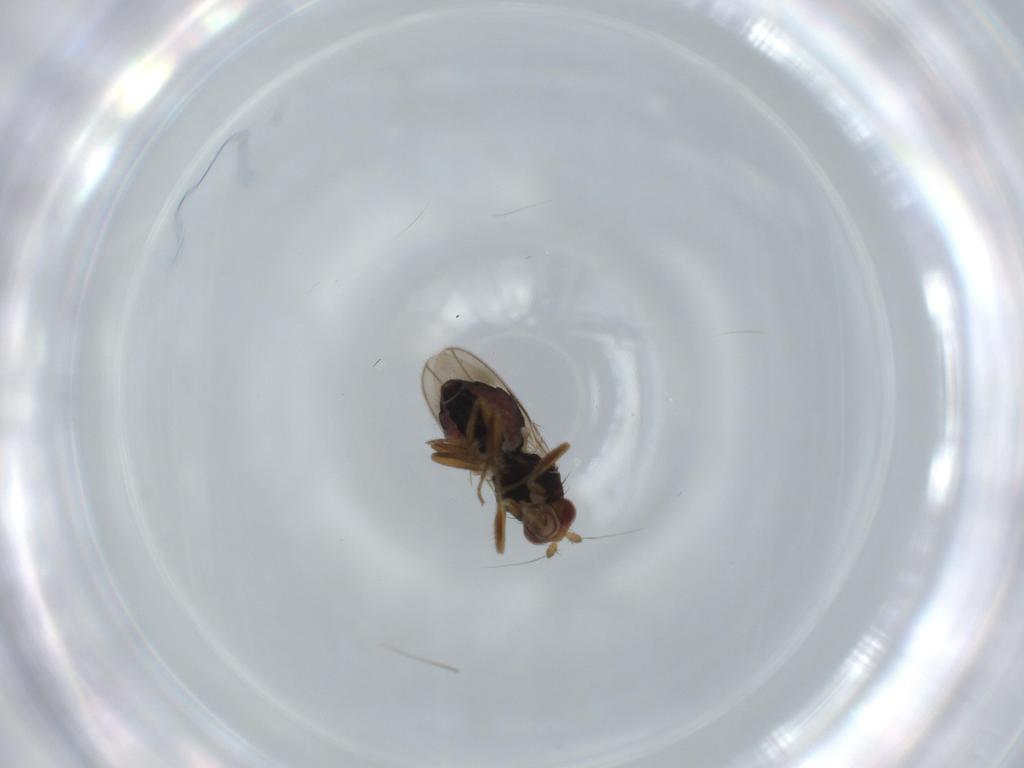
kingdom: Animalia
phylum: Arthropoda
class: Insecta
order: Diptera
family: Cecidomyiidae
